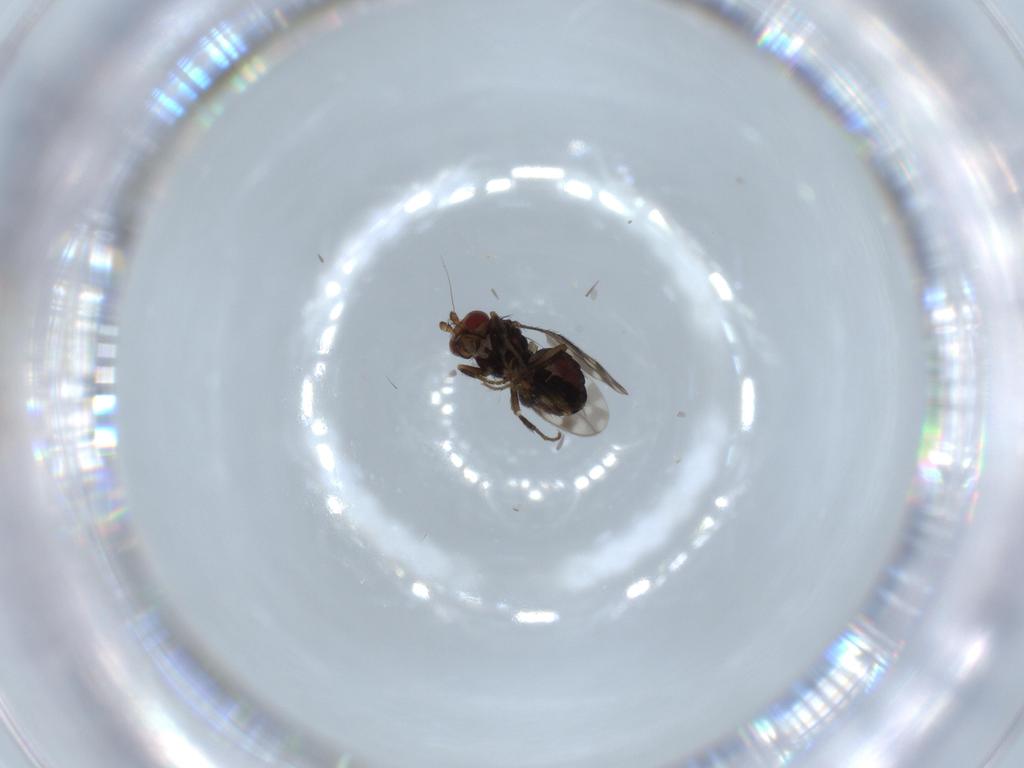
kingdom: Animalia
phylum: Arthropoda
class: Insecta
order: Diptera
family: Sphaeroceridae
